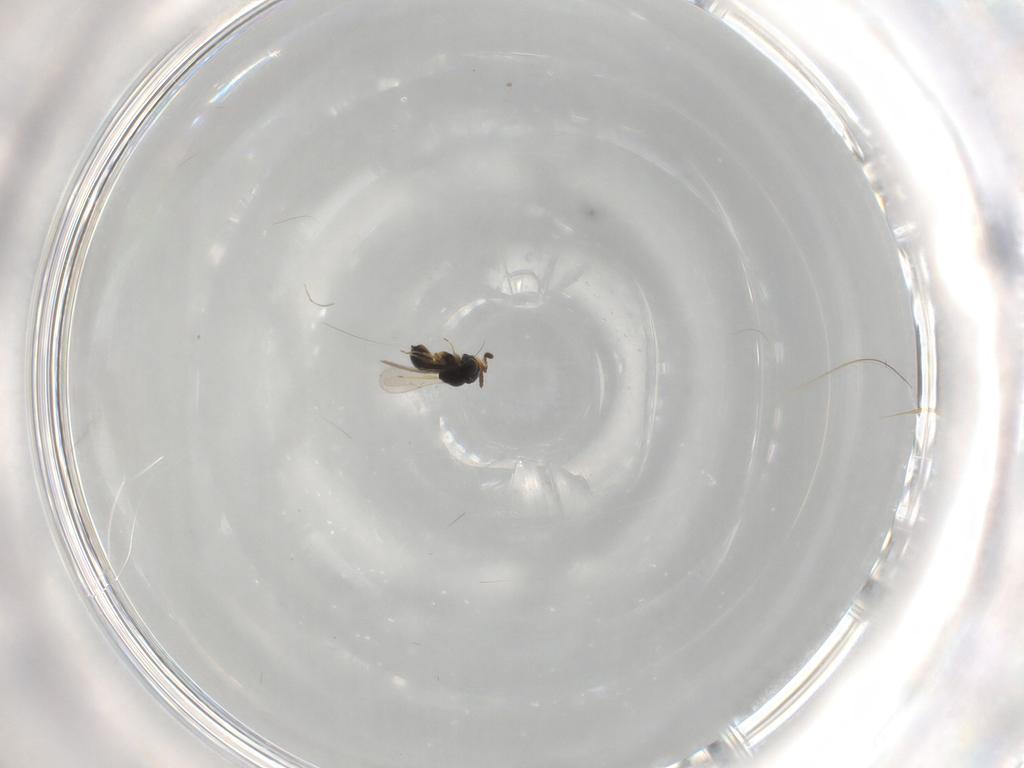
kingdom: Animalia
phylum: Arthropoda
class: Insecta
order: Hymenoptera
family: Scelionidae
